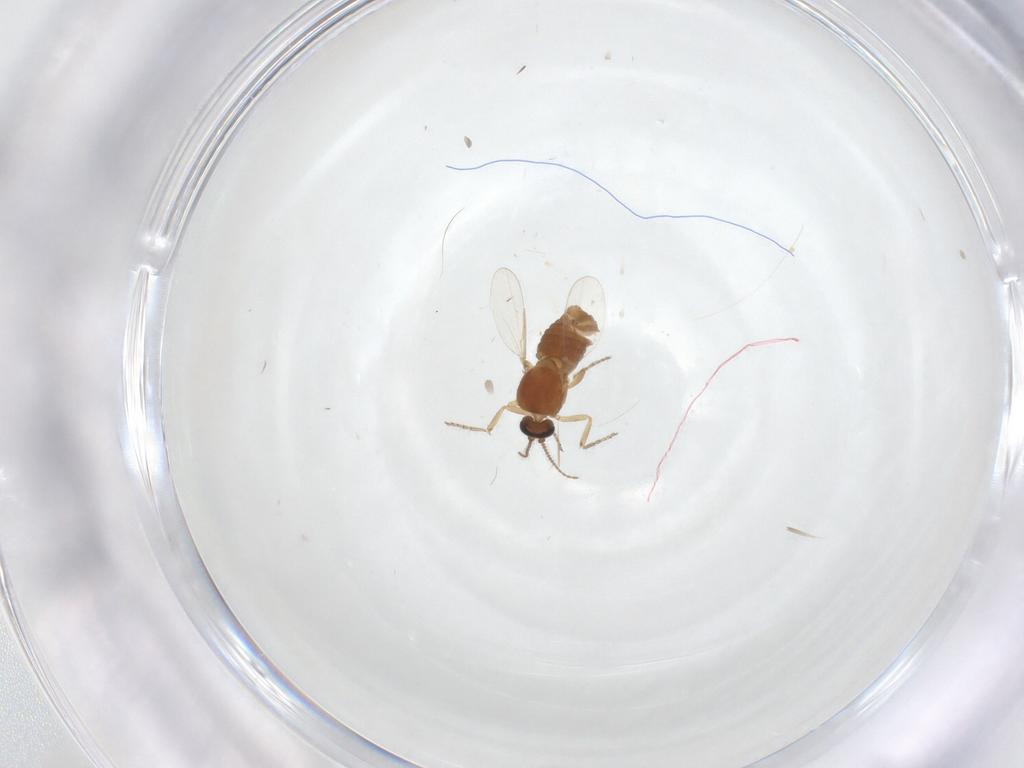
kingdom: Animalia
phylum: Arthropoda
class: Insecta
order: Diptera
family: Ceratopogonidae
